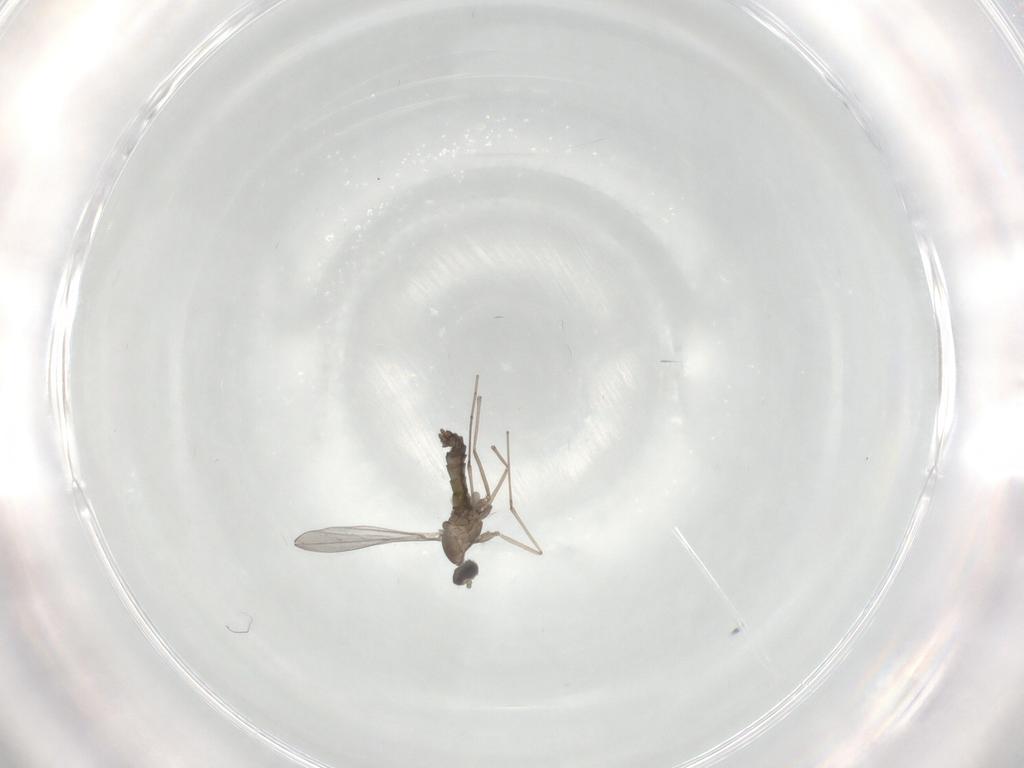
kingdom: Animalia
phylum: Arthropoda
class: Insecta
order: Diptera
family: Cecidomyiidae
